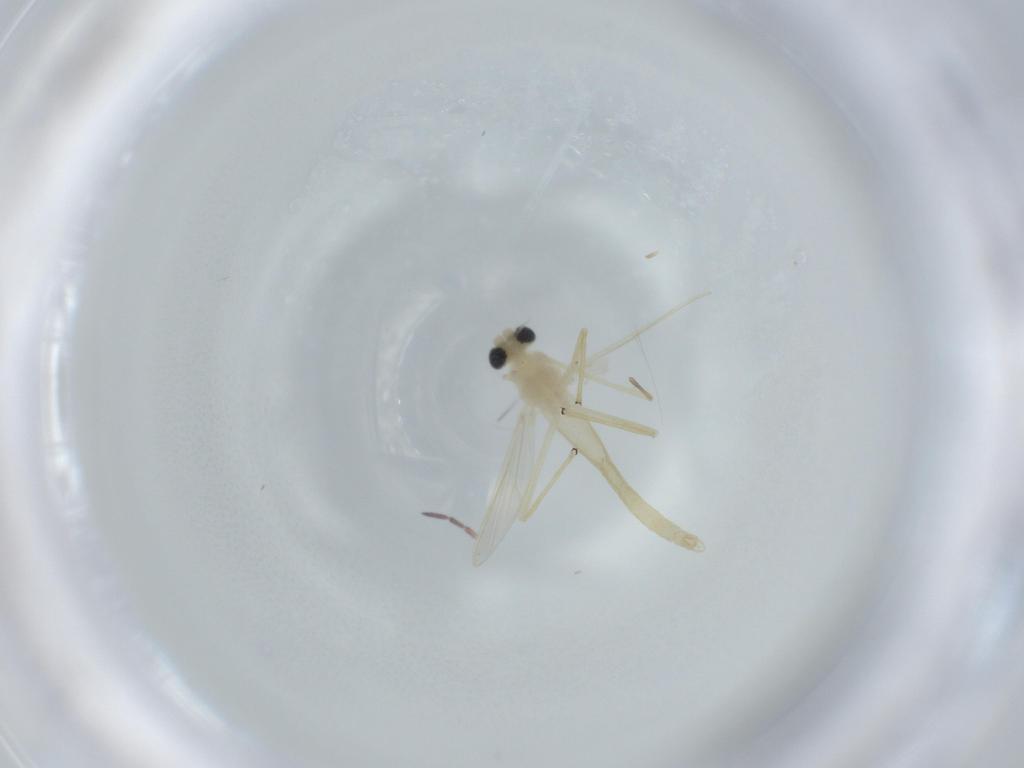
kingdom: Animalia
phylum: Arthropoda
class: Insecta
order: Diptera
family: Chironomidae
